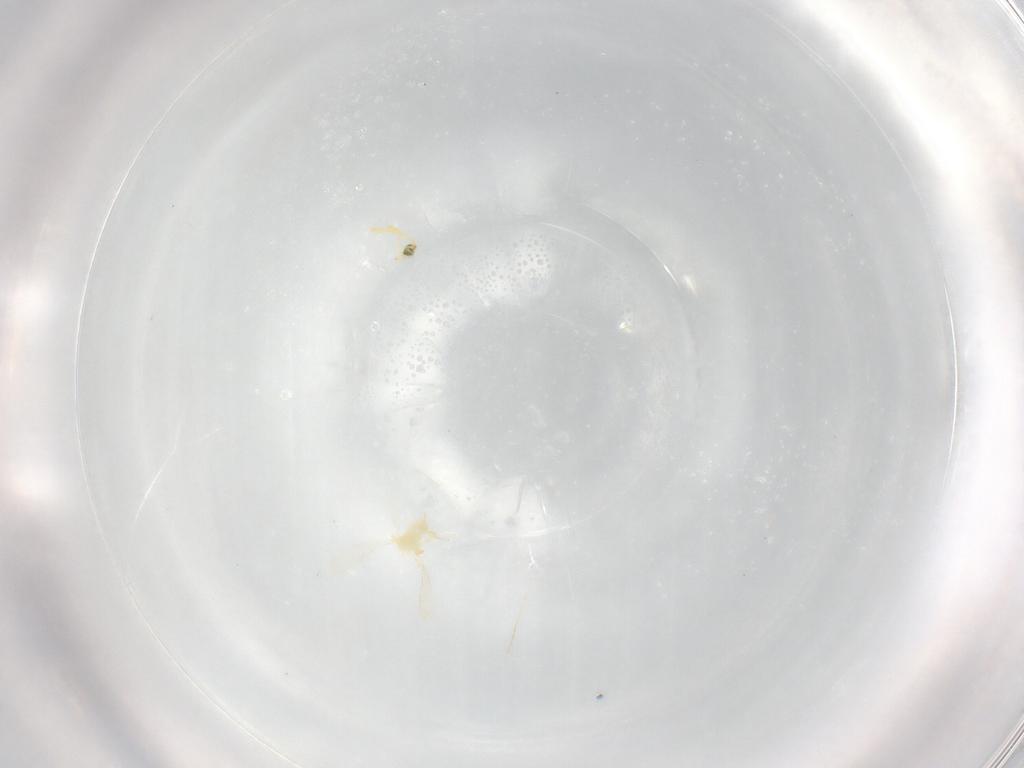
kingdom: Animalia
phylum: Arthropoda
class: Insecta
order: Hymenoptera
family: Aphelinidae
